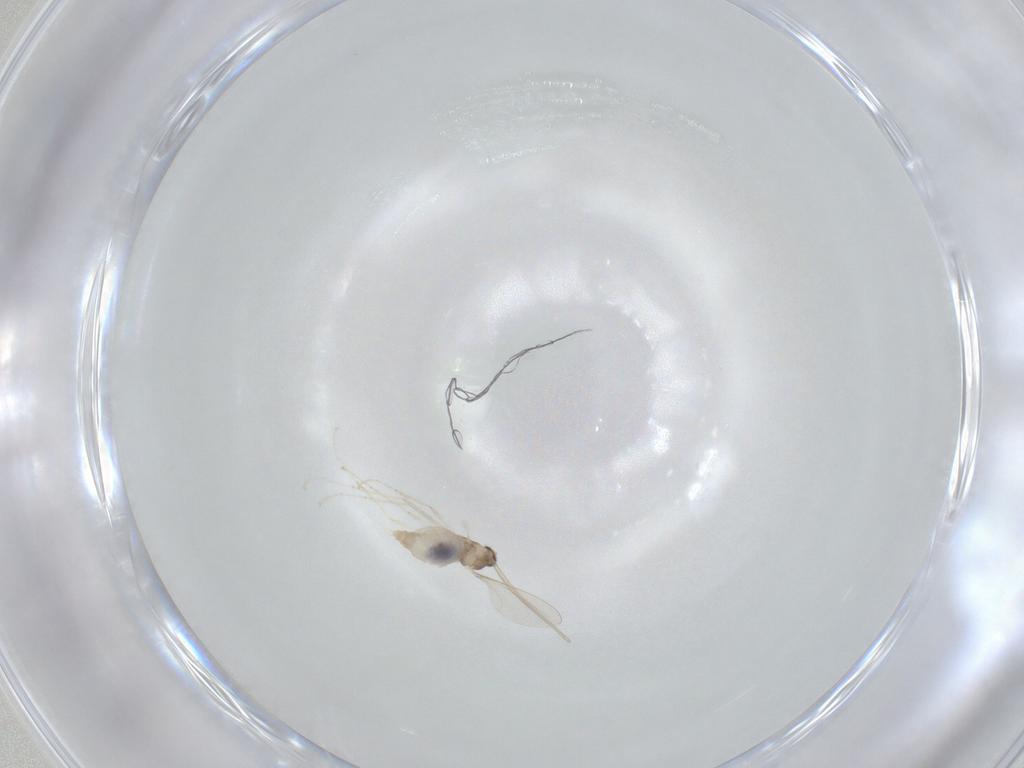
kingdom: Animalia
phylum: Arthropoda
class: Insecta
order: Diptera
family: Cecidomyiidae
